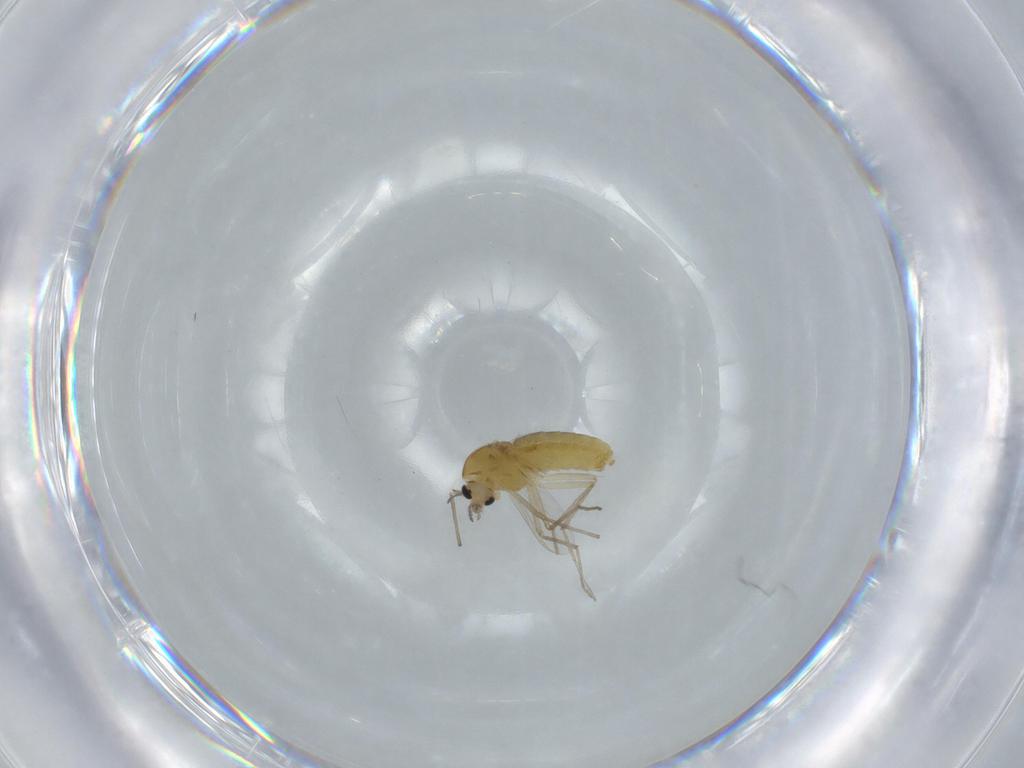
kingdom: Animalia
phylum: Arthropoda
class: Insecta
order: Diptera
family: Chironomidae
